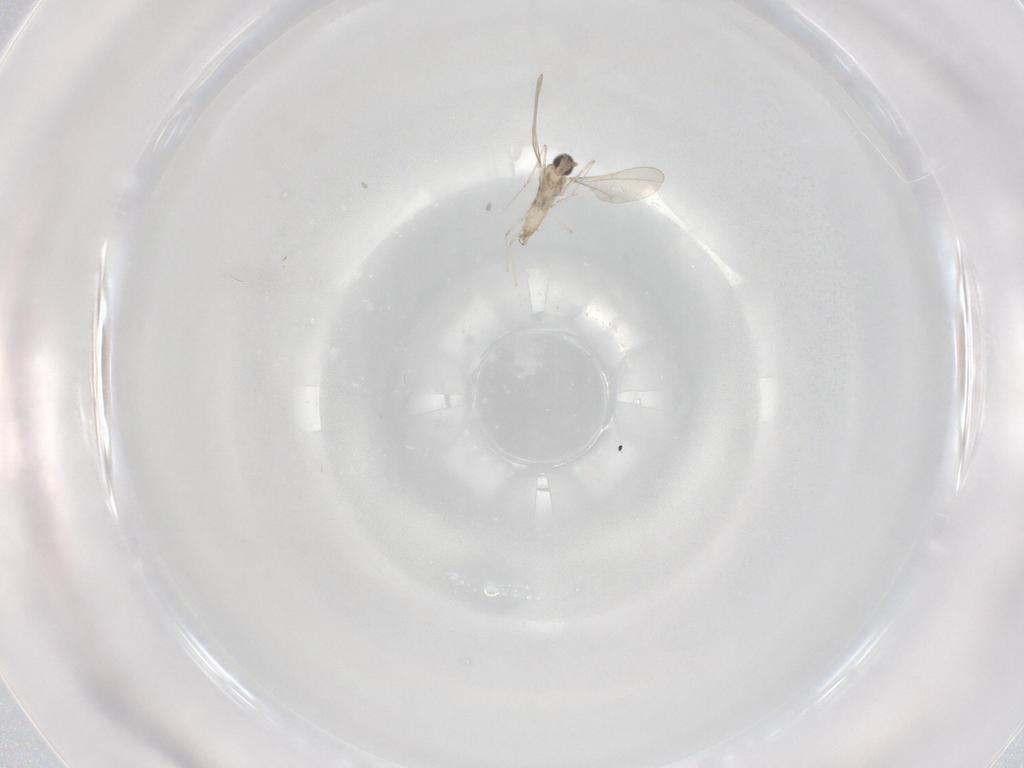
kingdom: Animalia
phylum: Arthropoda
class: Insecta
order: Diptera
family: Cecidomyiidae
